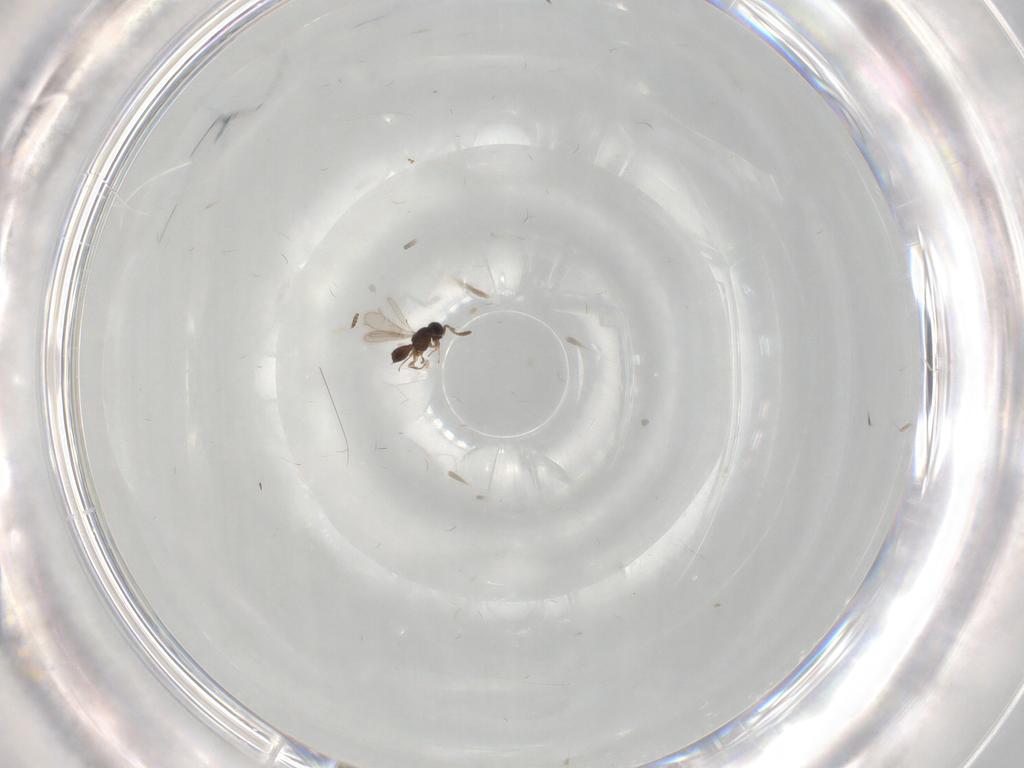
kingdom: Animalia
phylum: Arthropoda
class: Insecta
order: Hymenoptera
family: Scelionidae
